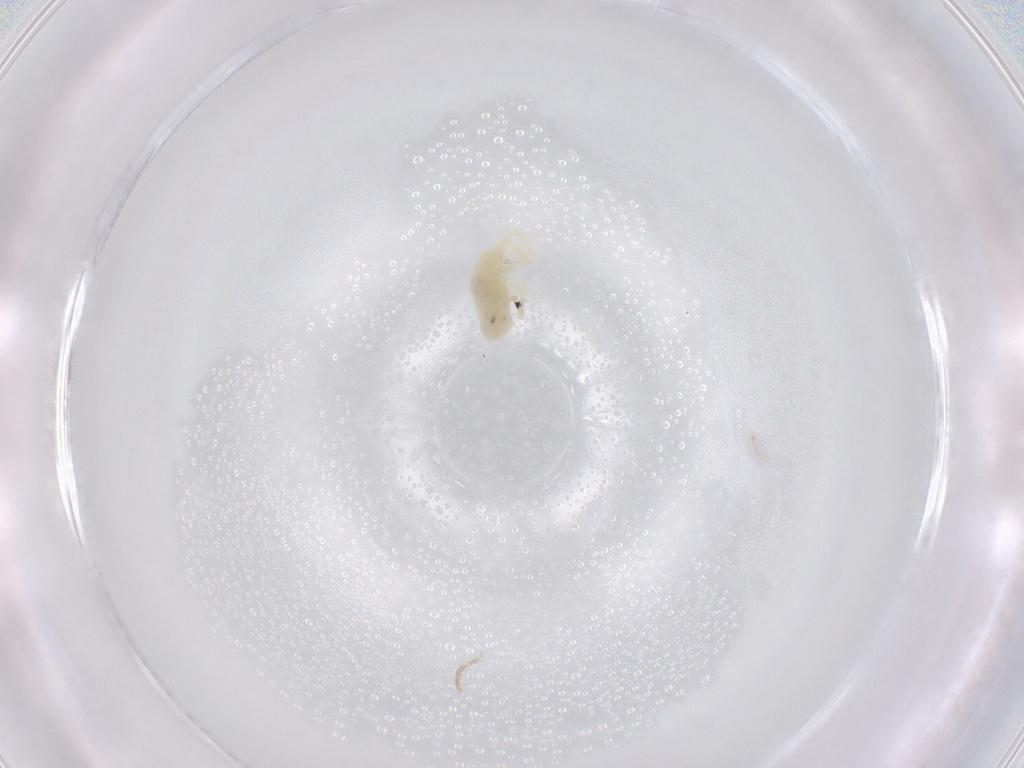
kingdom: Animalia
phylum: Arthropoda
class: Arachnida
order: Trombidiformes
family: Rhagidiidae
